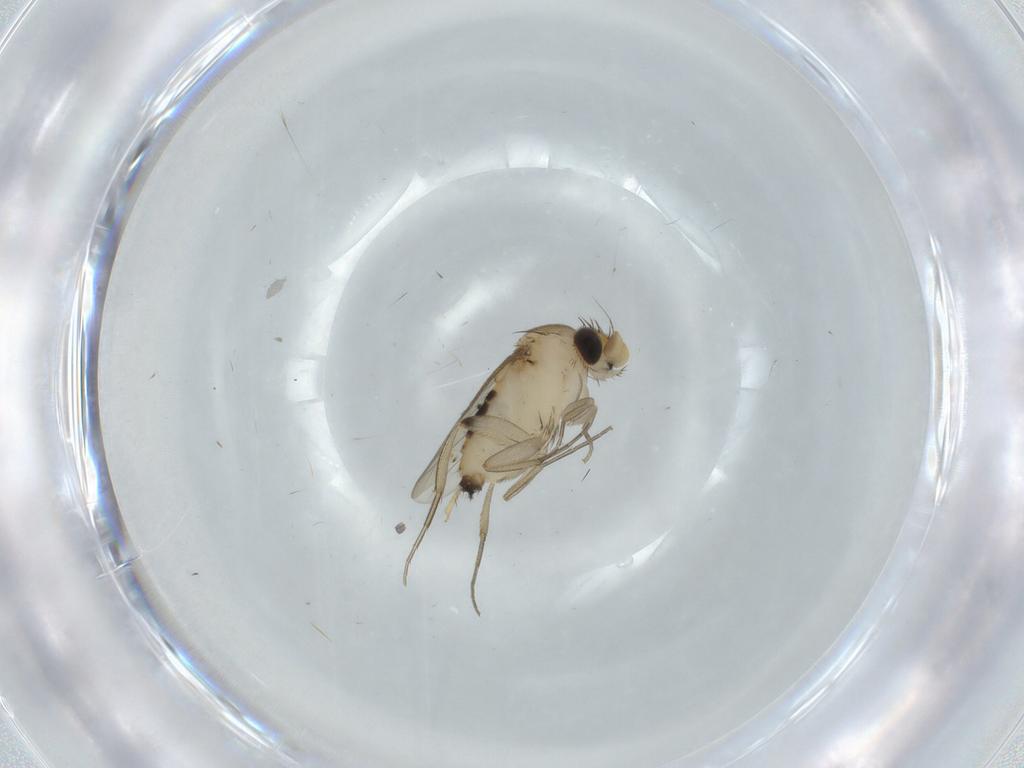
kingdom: Animalia
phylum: Arthropoda
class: Insecta
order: Diptera
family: Phoridae
